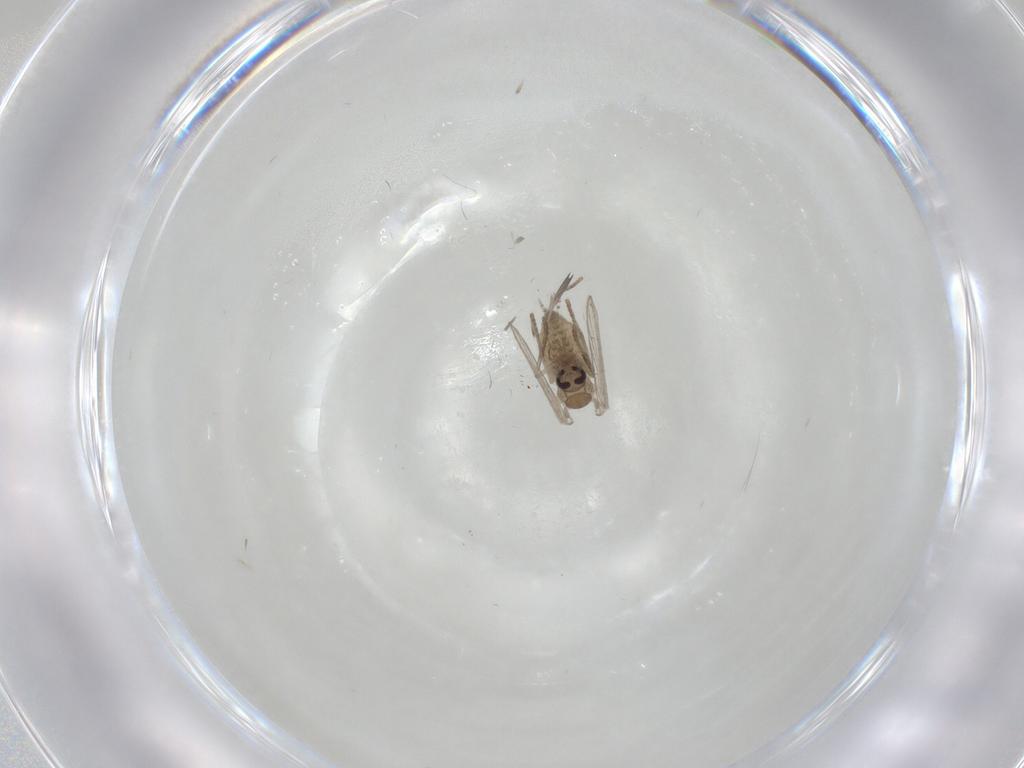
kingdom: Animalia
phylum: Arthropoda
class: Insecta
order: Diptera
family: Psychodidae
